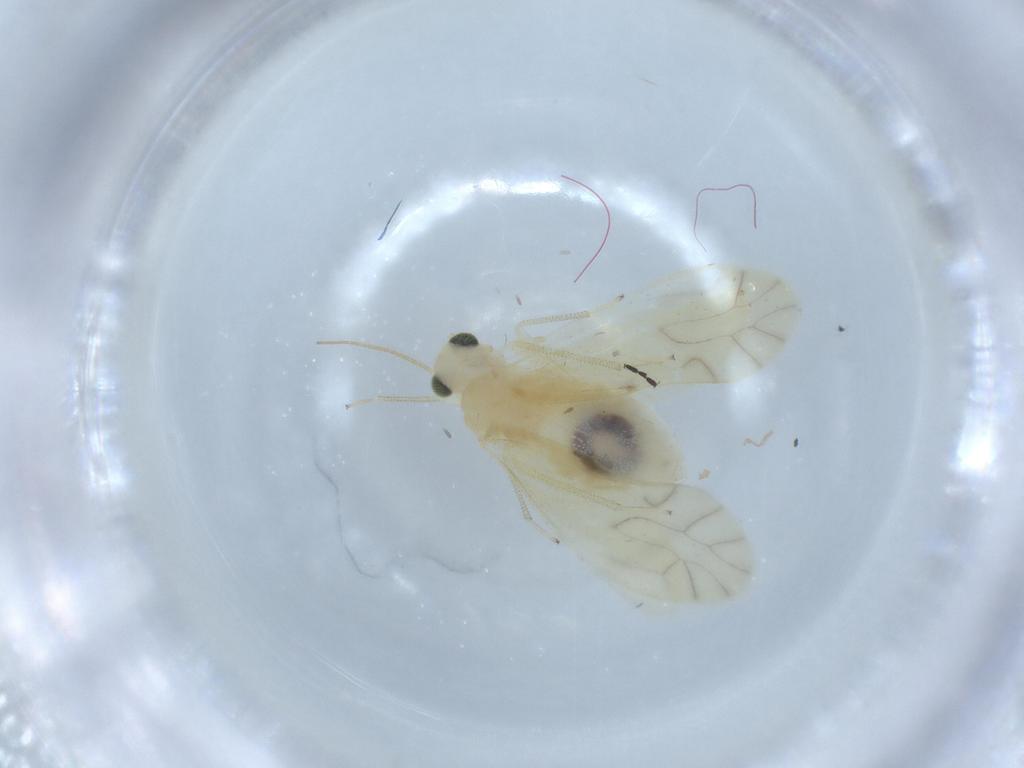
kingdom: Animalia
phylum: Arthropoda
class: Insecta
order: Psocodea
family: Caeciliusidae
